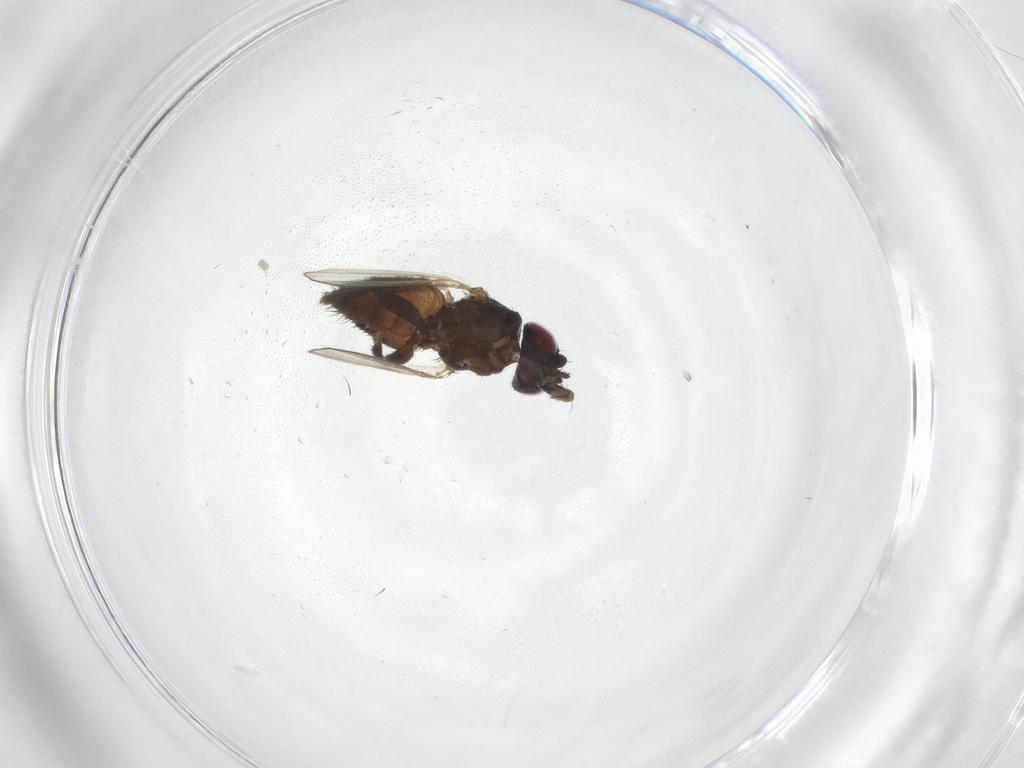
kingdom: Animalia
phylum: Arthropoda
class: Insecta
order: Diptera
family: Milichiidae
